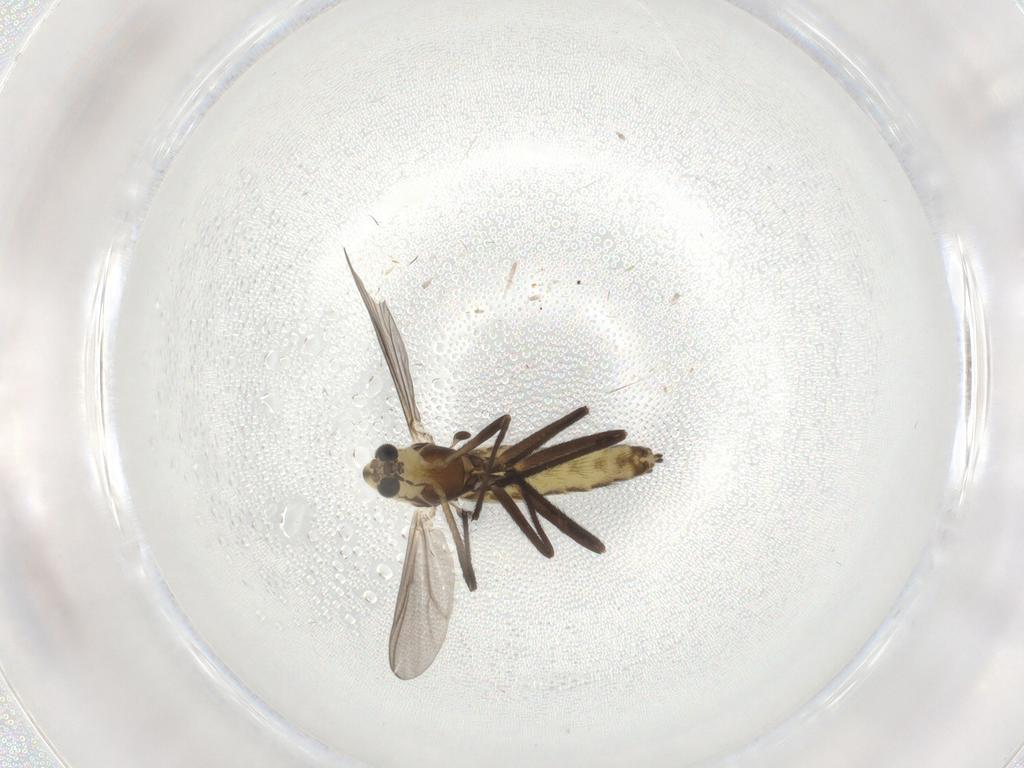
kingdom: Animalia
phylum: Arthropoda
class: Insecta
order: Diptera
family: Chironomidae
